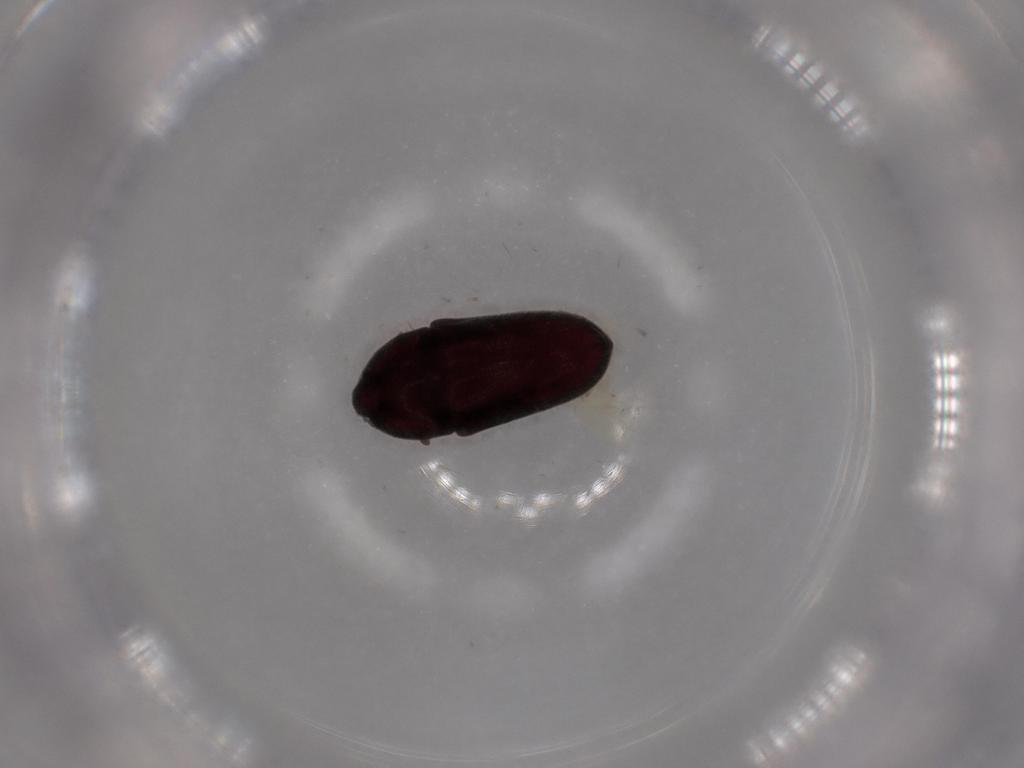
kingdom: Animalia
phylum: Arthropoda
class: Insecta
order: Coleoptera
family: Throscidae
